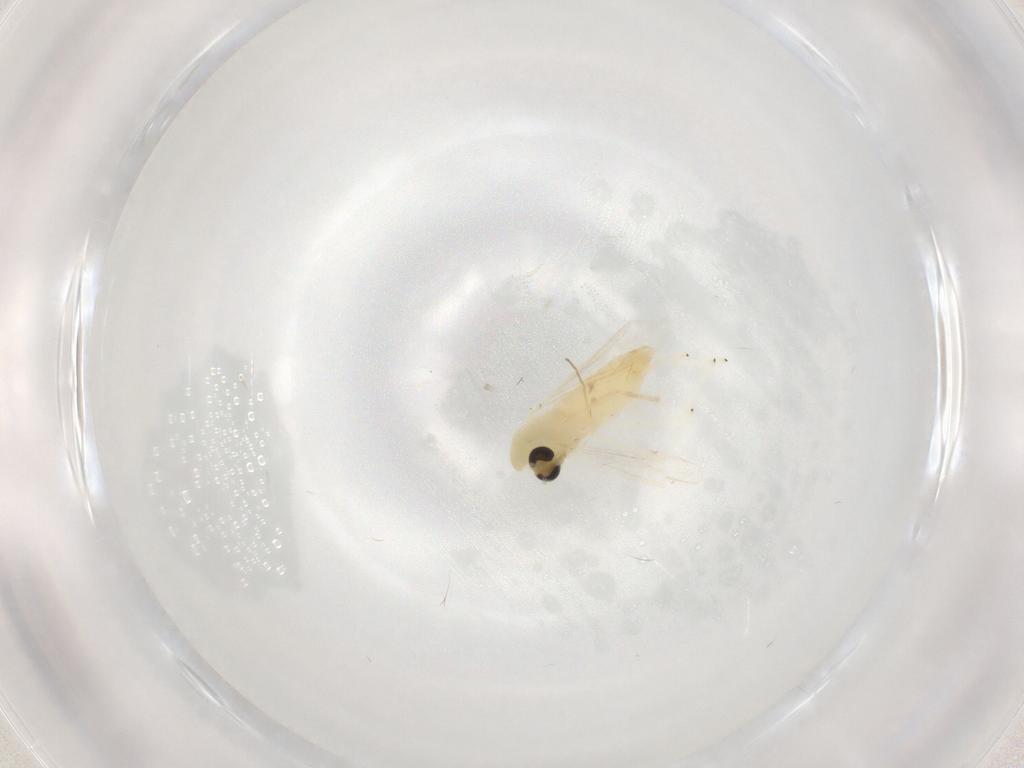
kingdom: Animalia
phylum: Arthropoda
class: Insecta
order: Diptera
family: Chironomidae
